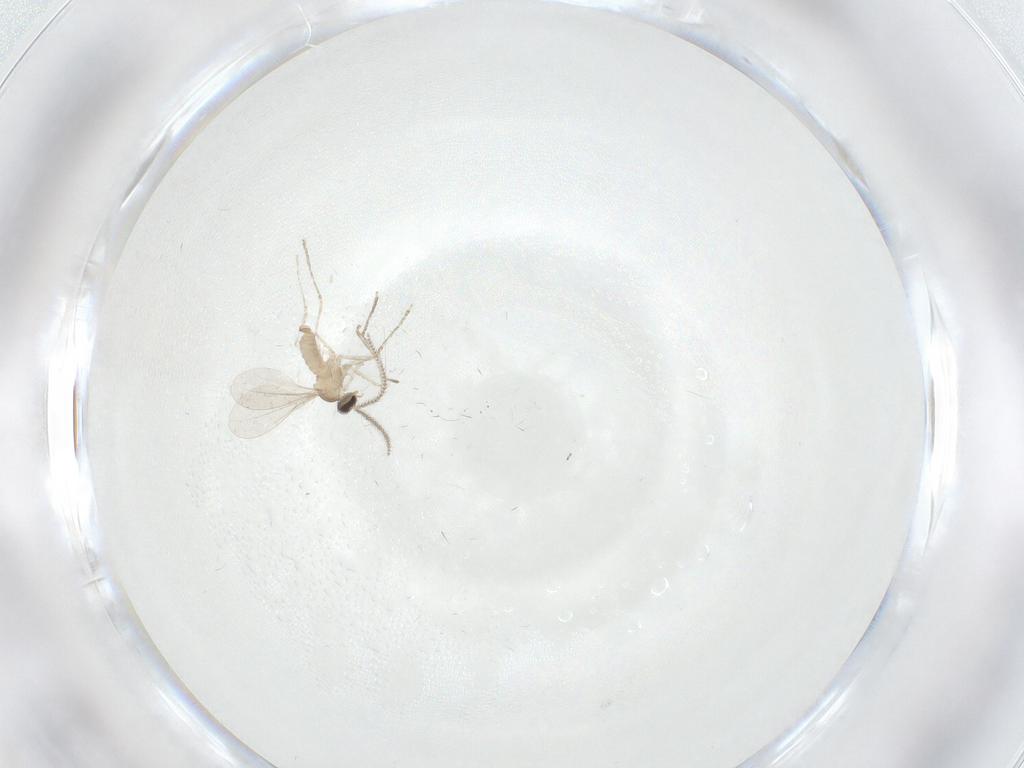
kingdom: Animalia
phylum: Arthropoda
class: Insecta
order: Diptera
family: Cecidomyiidae
